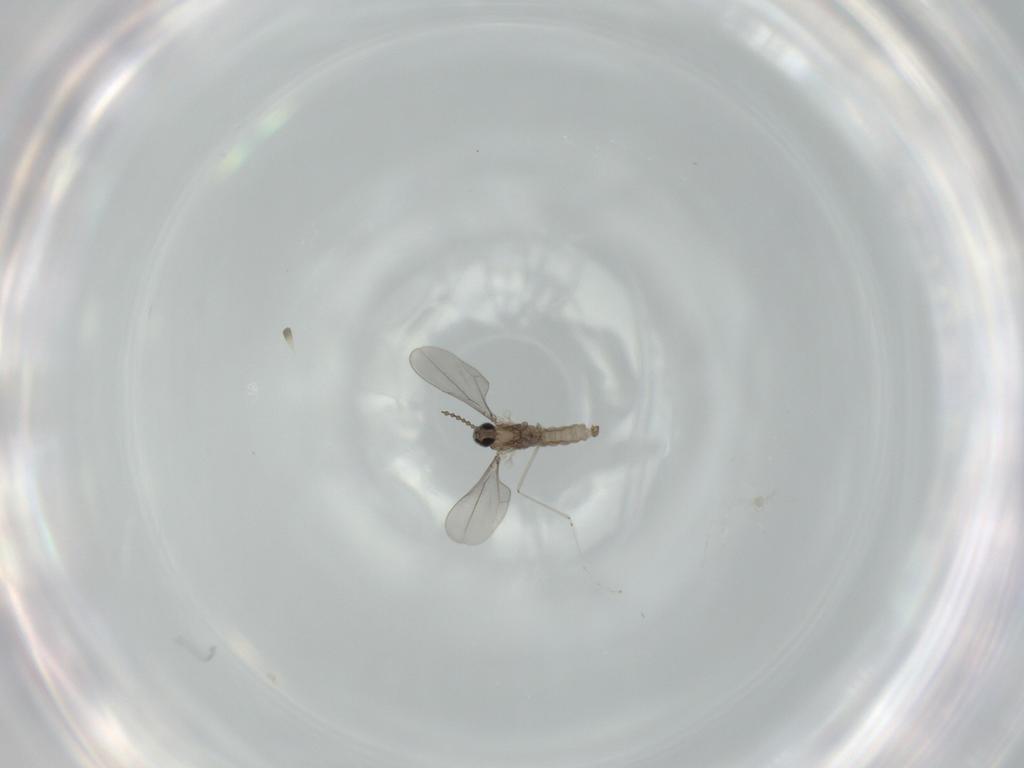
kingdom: Animalia
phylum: Arthropoda
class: Insecta
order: Diptera
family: Cecidomyiidae
